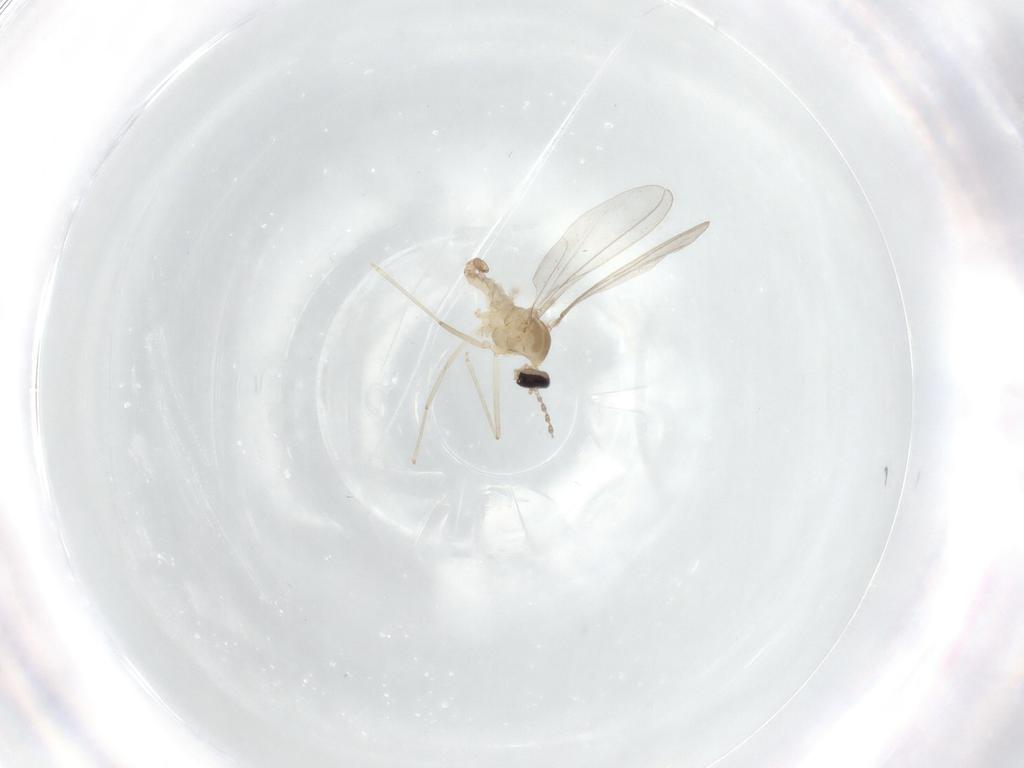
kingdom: Animalia
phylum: Arthropoda
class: Insecta
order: Diptera
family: Cecidomyiidae
